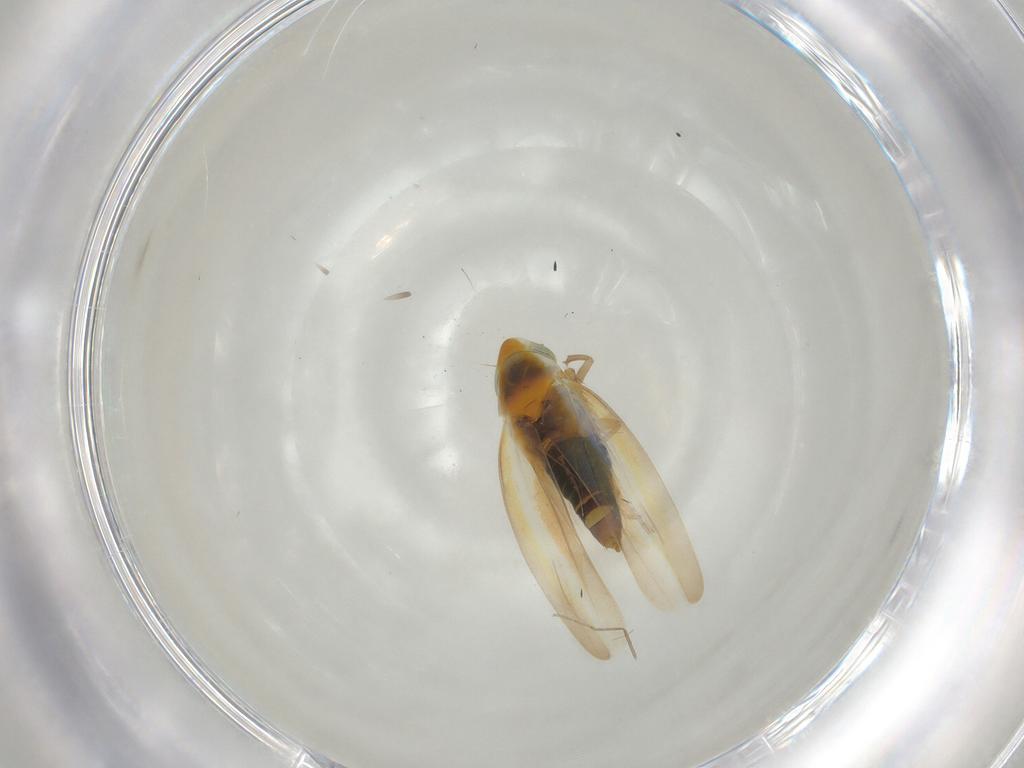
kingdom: Animalia
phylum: Arthropoda
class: Insecta
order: Hemiptera
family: Cicadellidae
